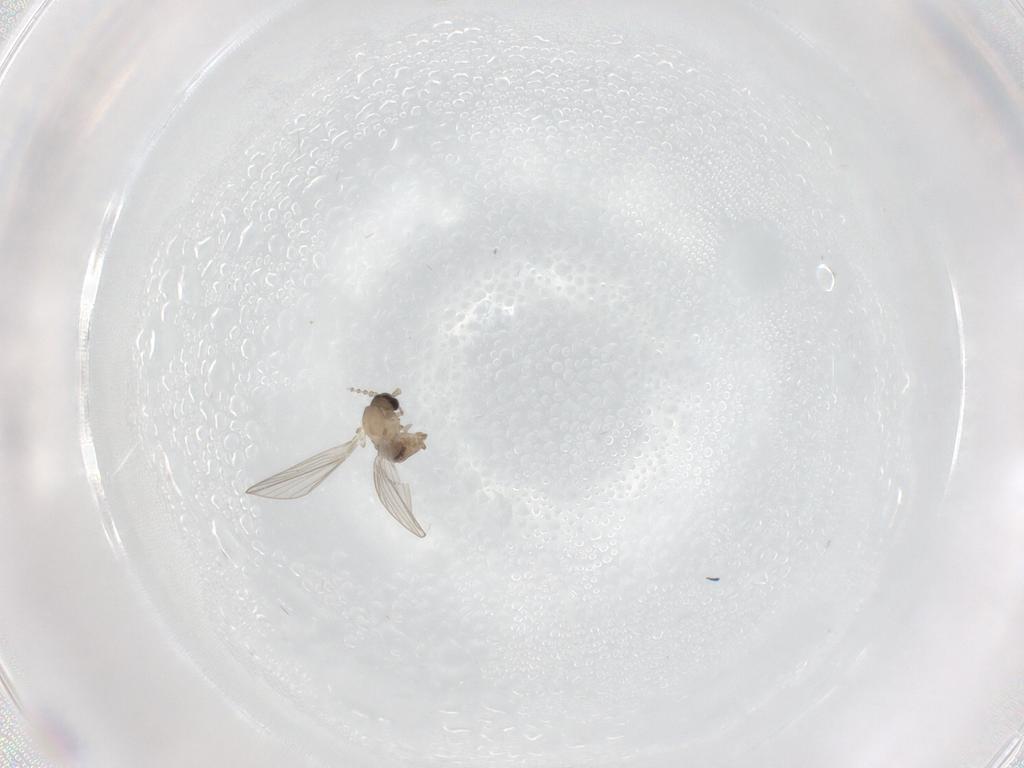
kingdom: Animalia
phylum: Arthropoda
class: Insecta
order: Diptera
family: Psychodidae
